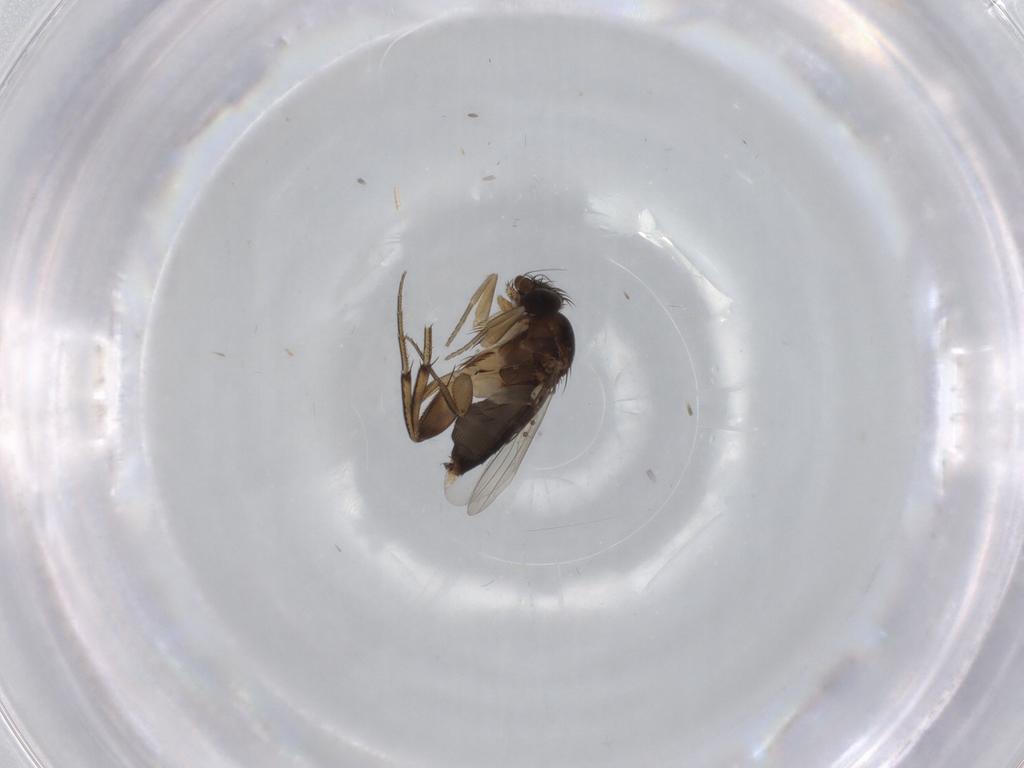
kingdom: Animalia
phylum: Arthropoda
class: Insecta
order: Diptera
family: Phoridae
